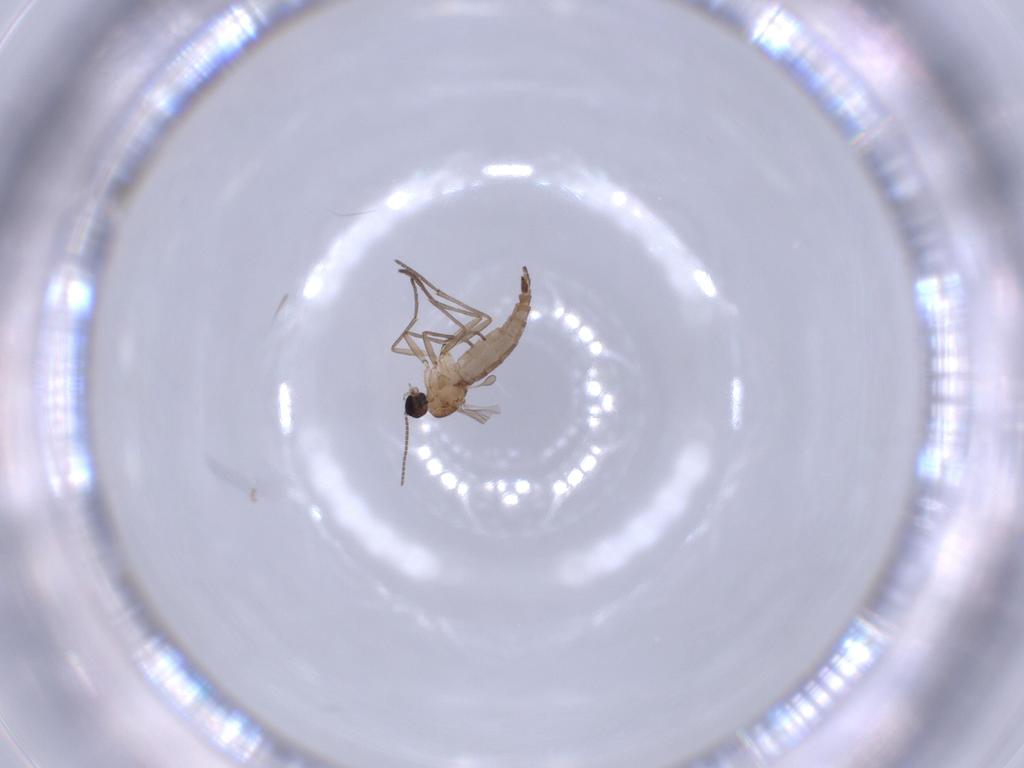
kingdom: Animalia
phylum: Arthropoda
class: Insecta
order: Diptera
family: Sciaridae
